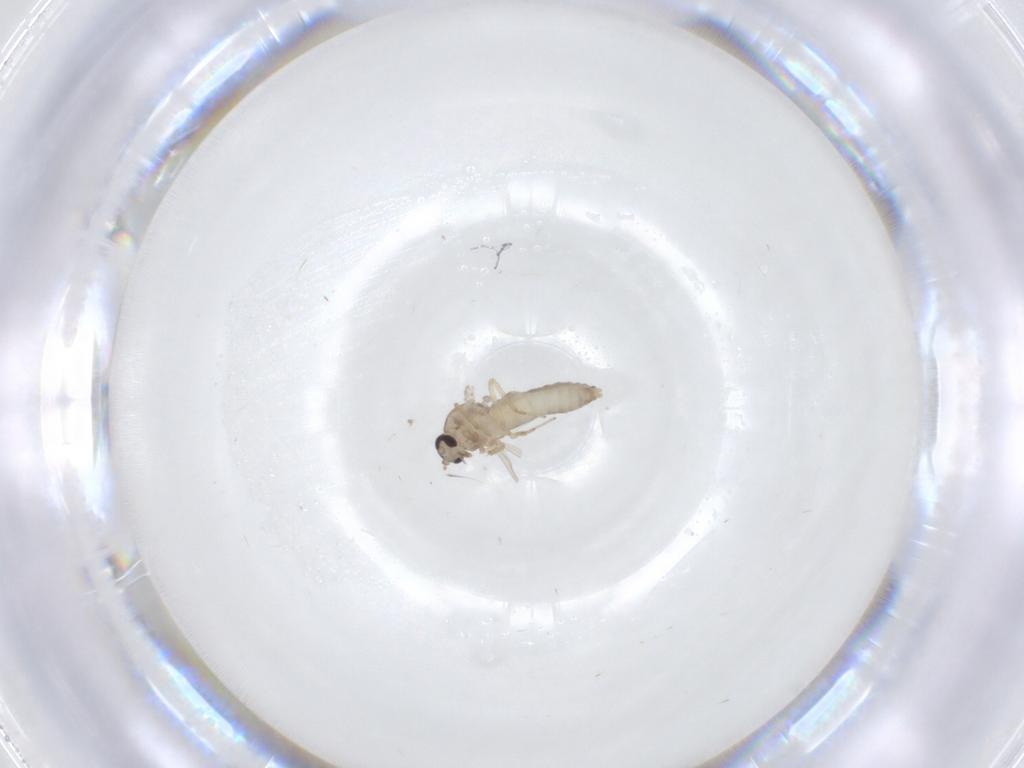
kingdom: Animalia
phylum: Arthropoda
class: Insecta
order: Diptera
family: Ceratopogonidae
